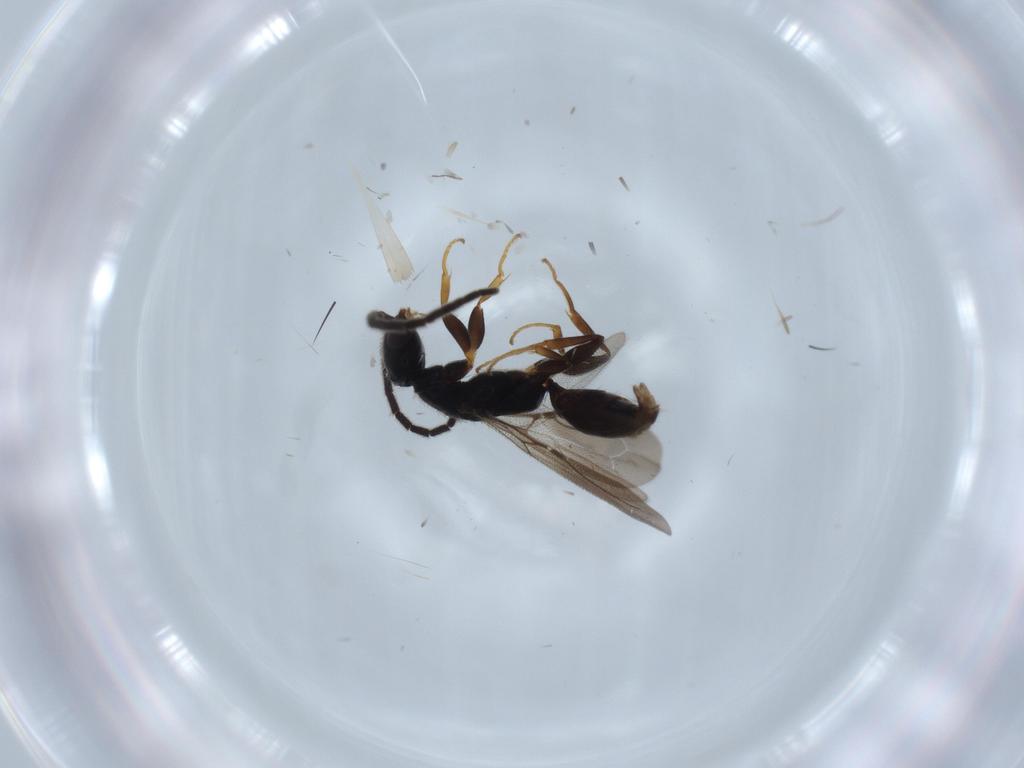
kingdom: Animalia
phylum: Arthropoda
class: Insecta
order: Hymenoptera
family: Bethylidae
